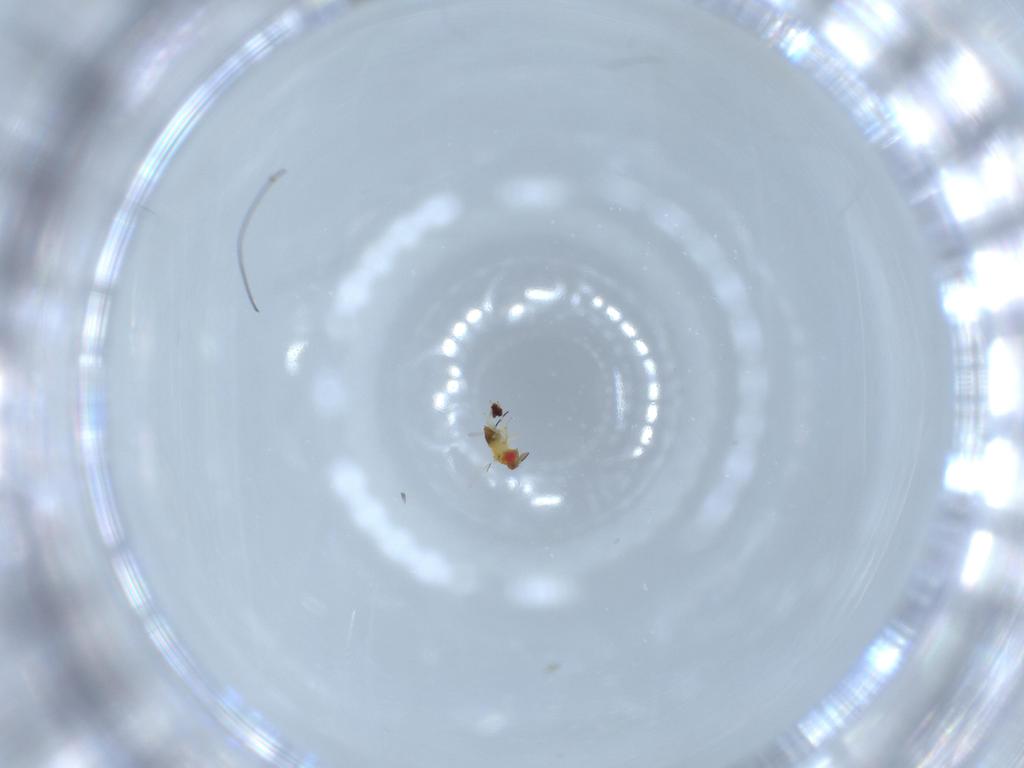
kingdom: Animalia
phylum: Arthropoda
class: Insecta
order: Hymenoptera
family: Trichogrammatidae
